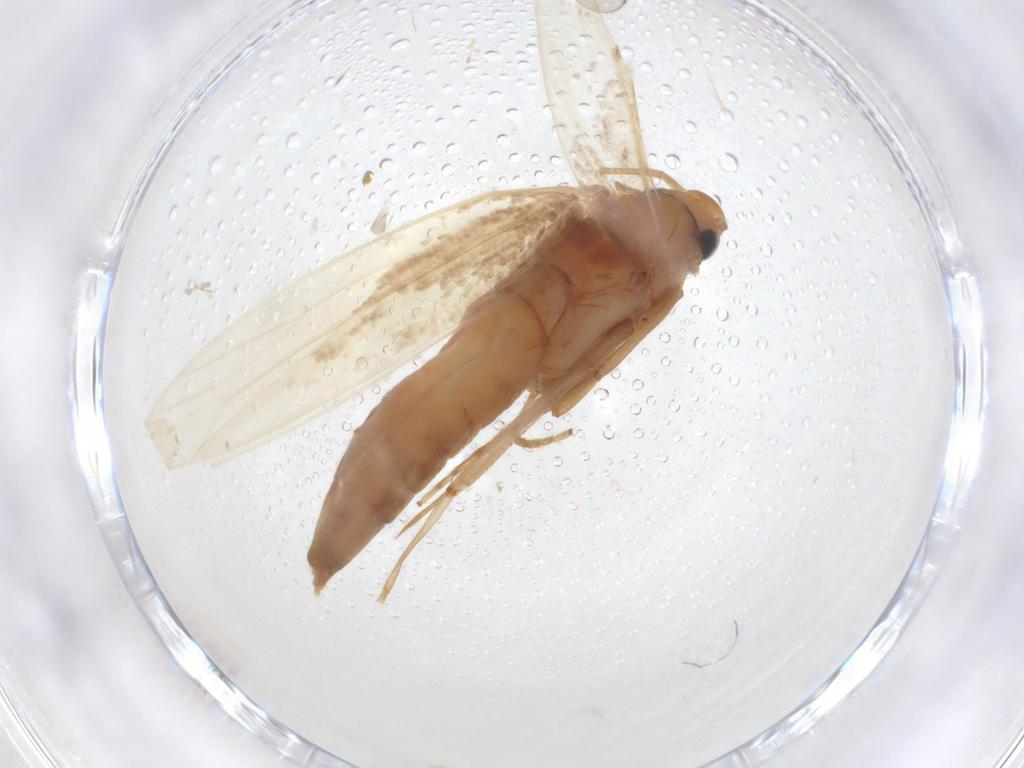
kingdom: Animalia
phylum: Arthropoda
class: Insecta
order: Lepidoptera
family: Tineidae
